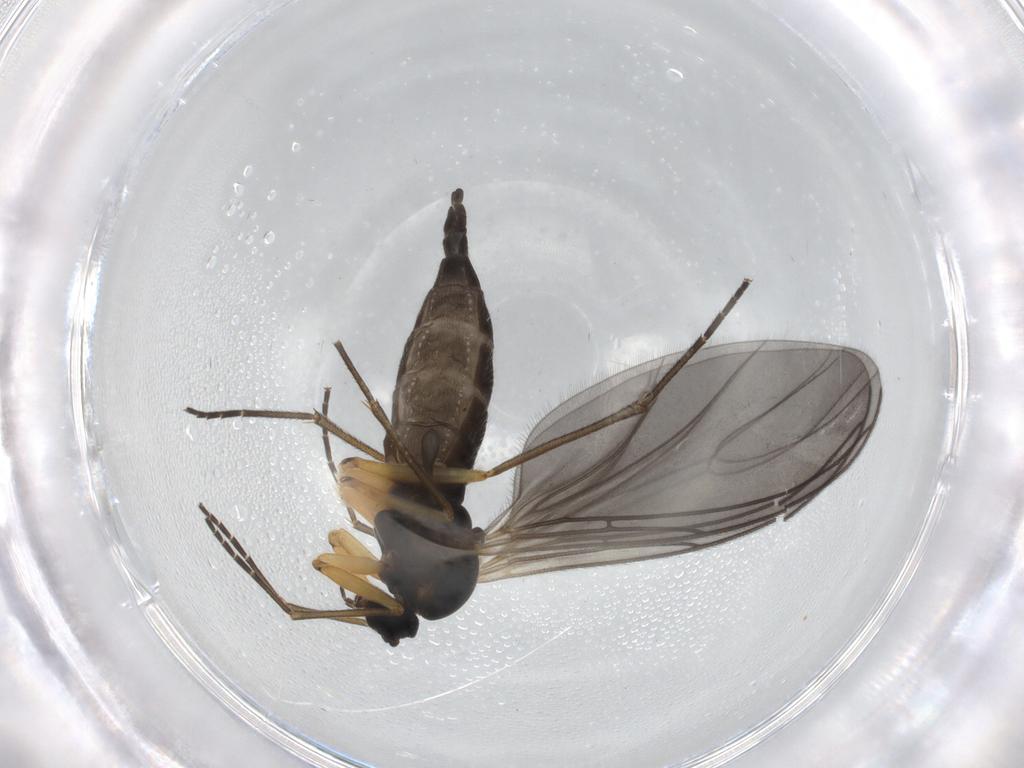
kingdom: Animalia
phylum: Arthropoda
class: Insecta
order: Diptera
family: Sciaridae
